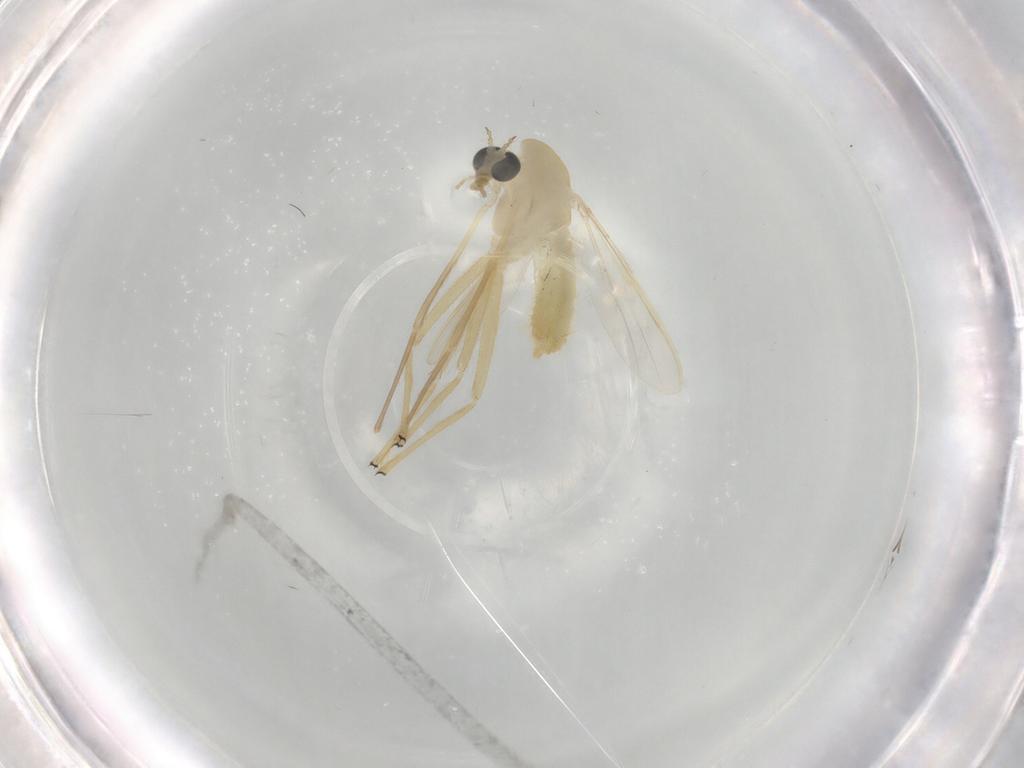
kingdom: Animalia
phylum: Arthropoda
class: Insecta
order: Diptera
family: Chironomidae
